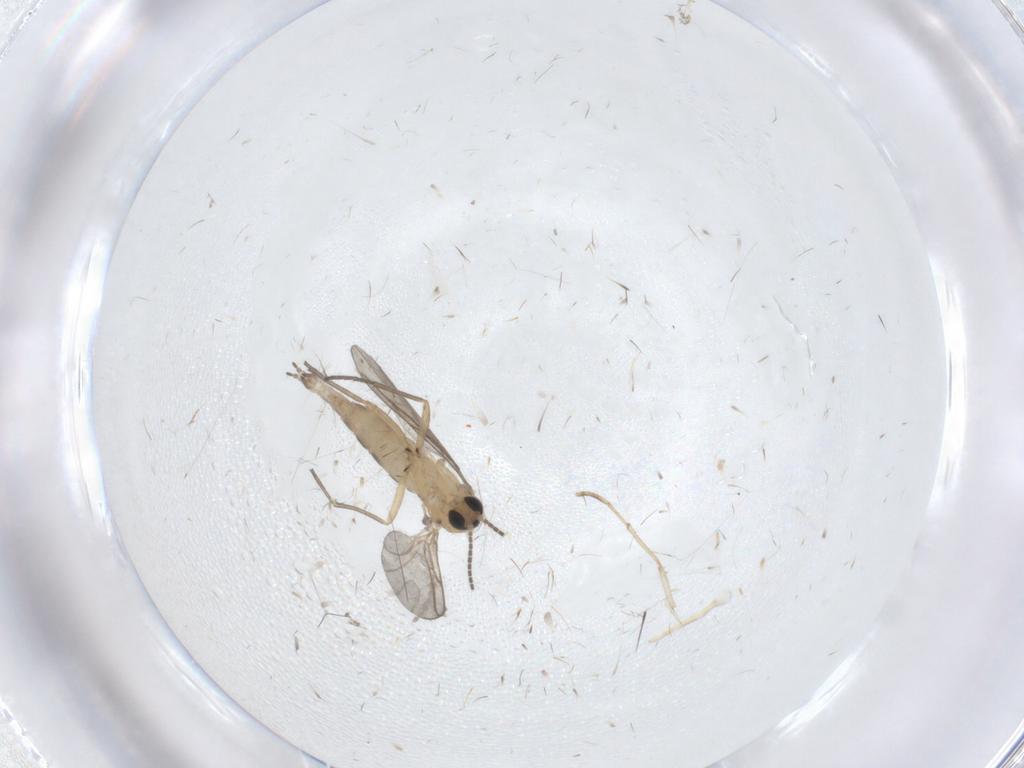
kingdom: Animalia
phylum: Arthropoda
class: Insecta
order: Diptera
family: Sciaridae
